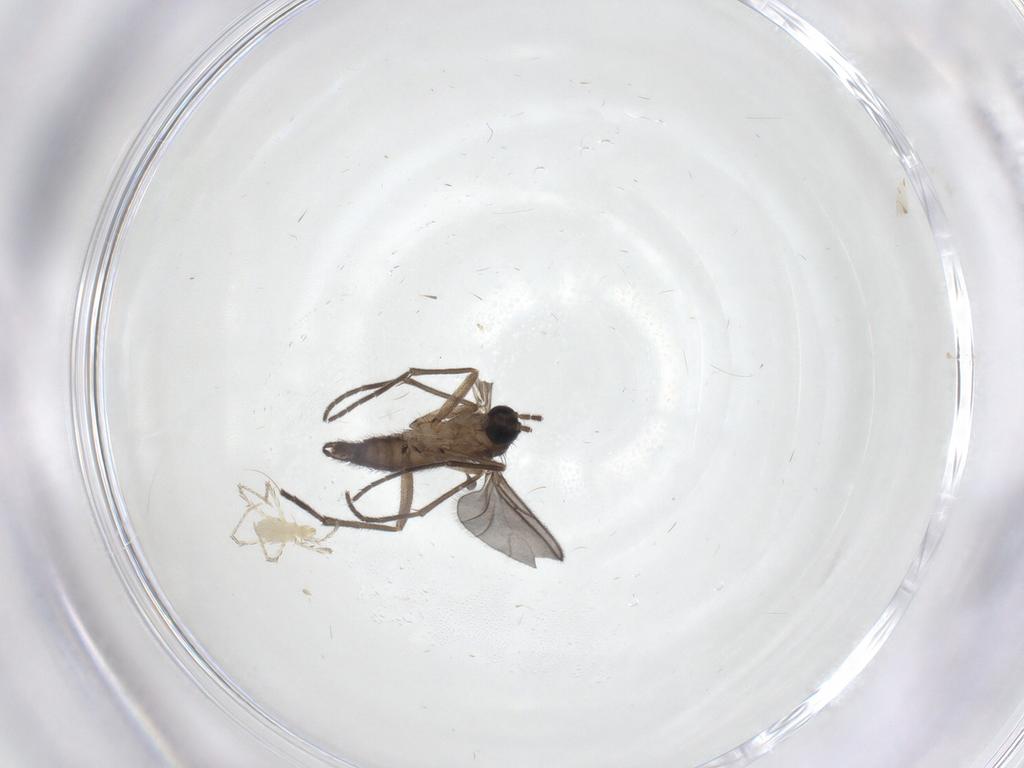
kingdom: Animalia
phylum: Arthropoda
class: Insecta
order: Diptera
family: Sciaridae
